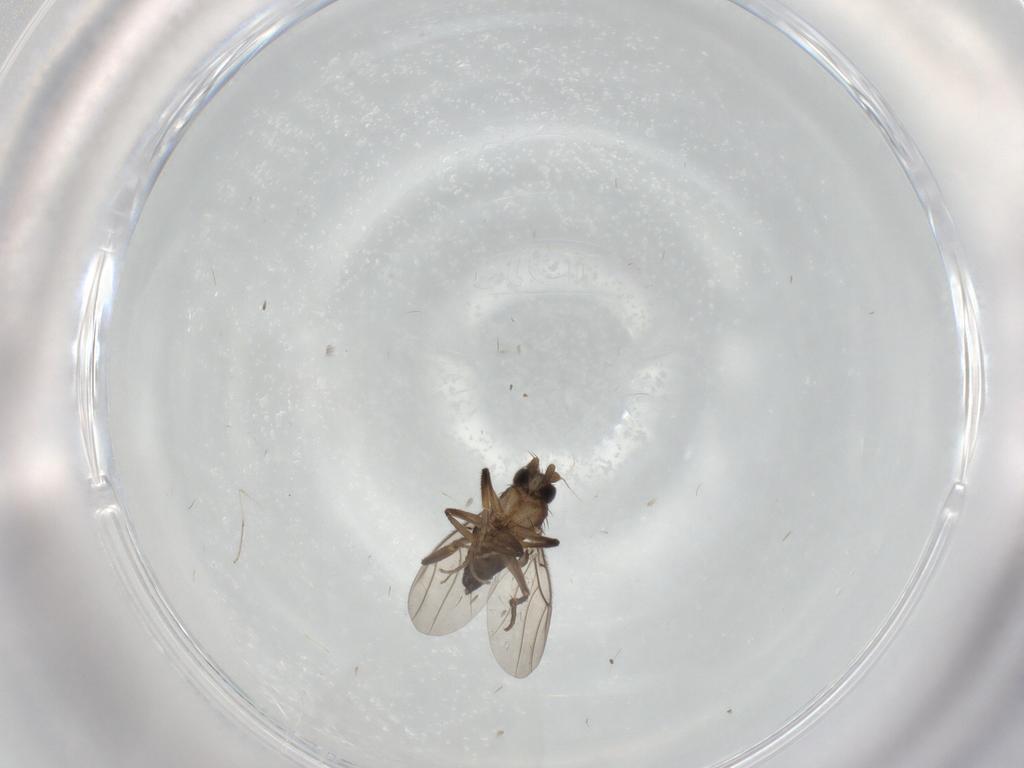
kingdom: Animalia
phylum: Arthropoda
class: Insecta
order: Diptera
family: Phoridae
